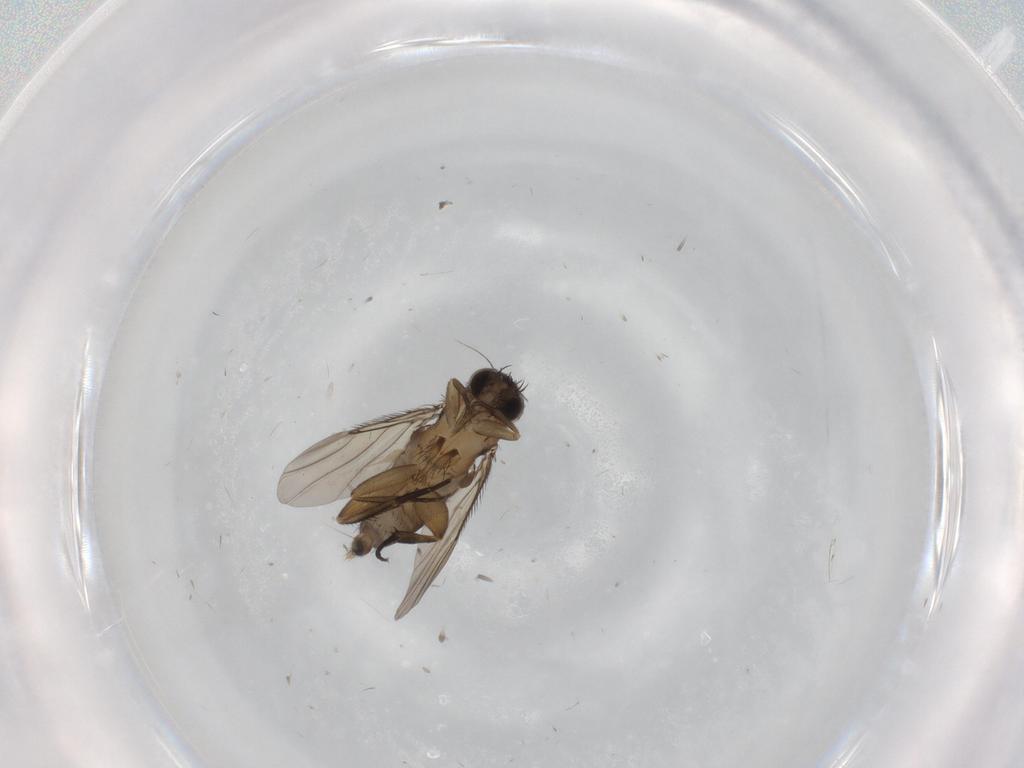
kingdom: Animalia
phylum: Arthropoda
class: Insecta
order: Diptera
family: Phoridae
